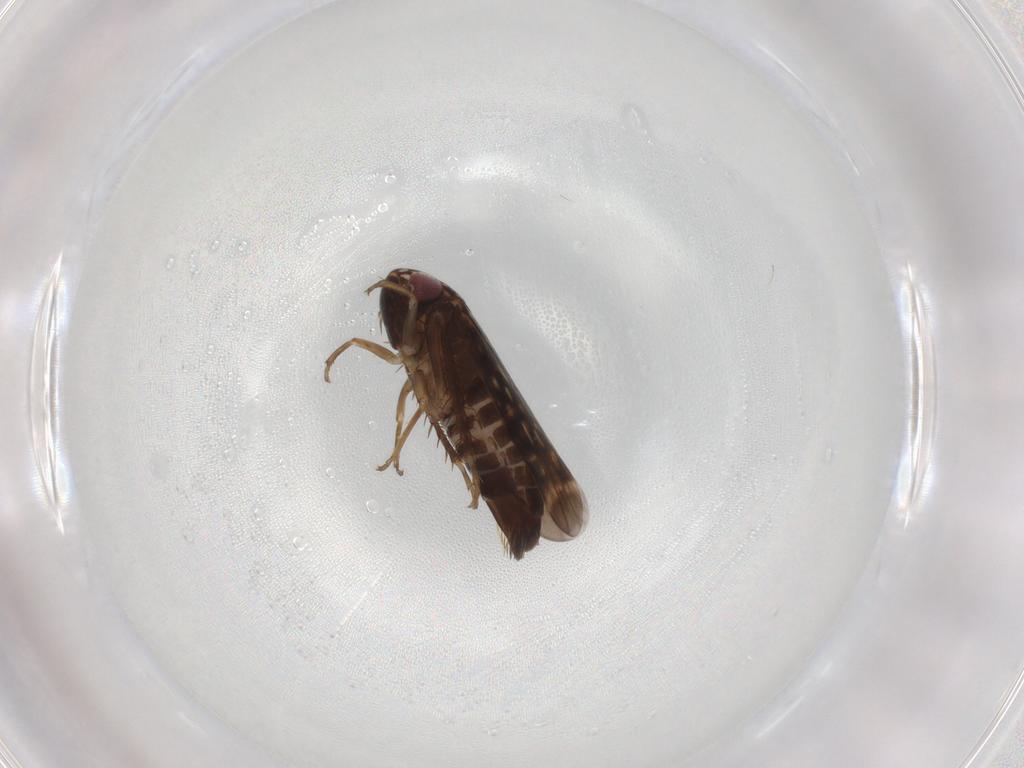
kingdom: Animalia
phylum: Arthropoda
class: Insecta
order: Hemiptera
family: Cicadellidae
